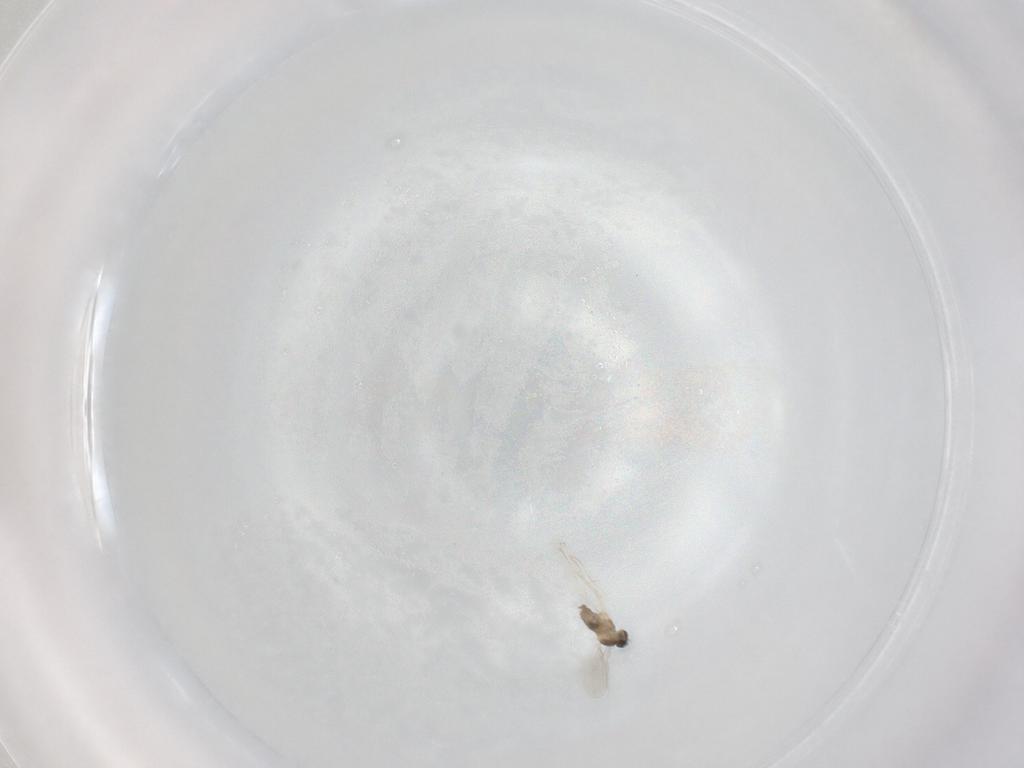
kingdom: Animalia
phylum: Arthropoda
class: Insecta
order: Diptera
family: Cecidomyiidae
